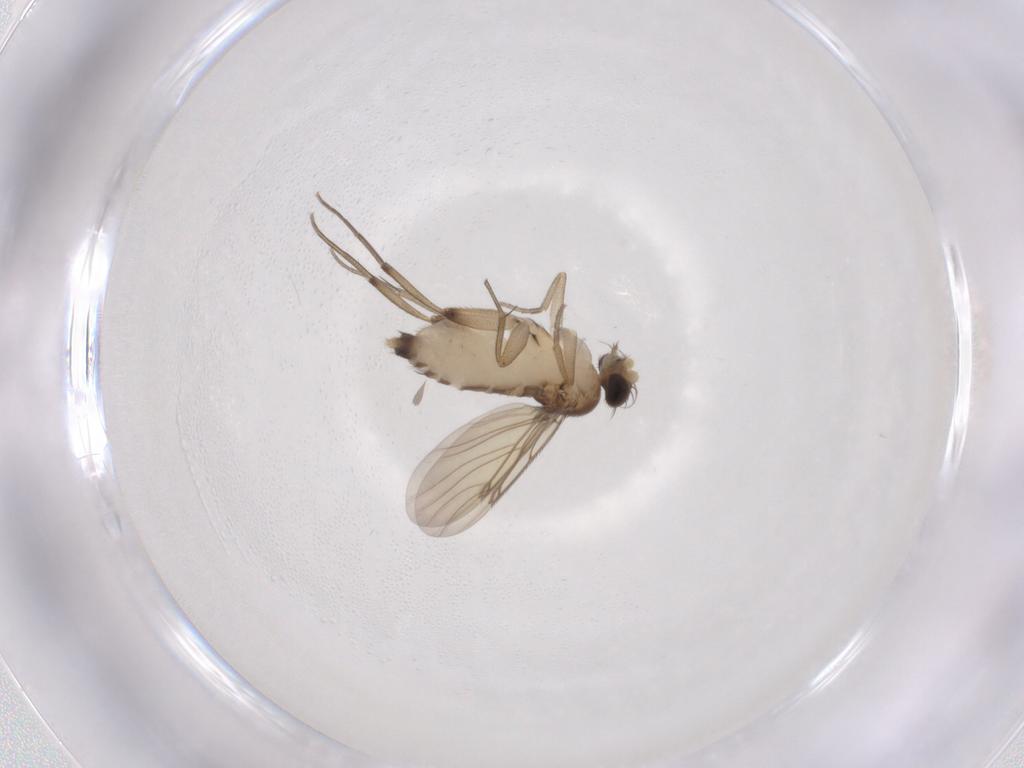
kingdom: Animalia
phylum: Arthropoda
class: Insecta
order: Diptera
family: Phoridae
